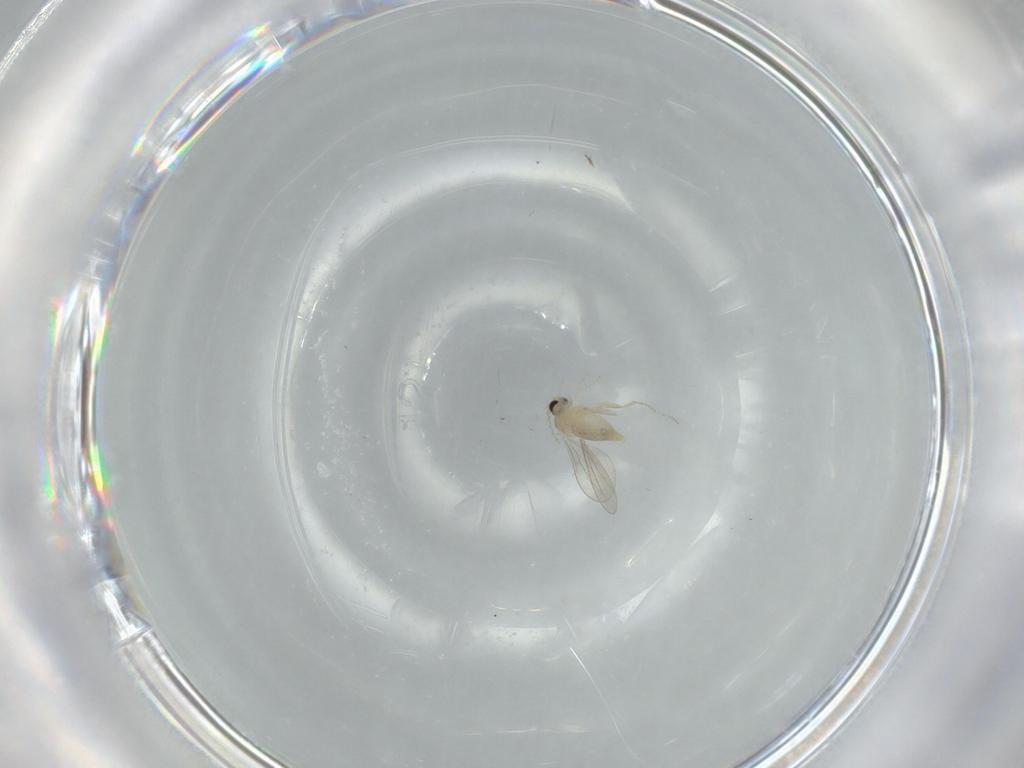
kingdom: Animalia
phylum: Arthropoda
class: Insecta
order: Diptera
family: Cecidomyiidae
